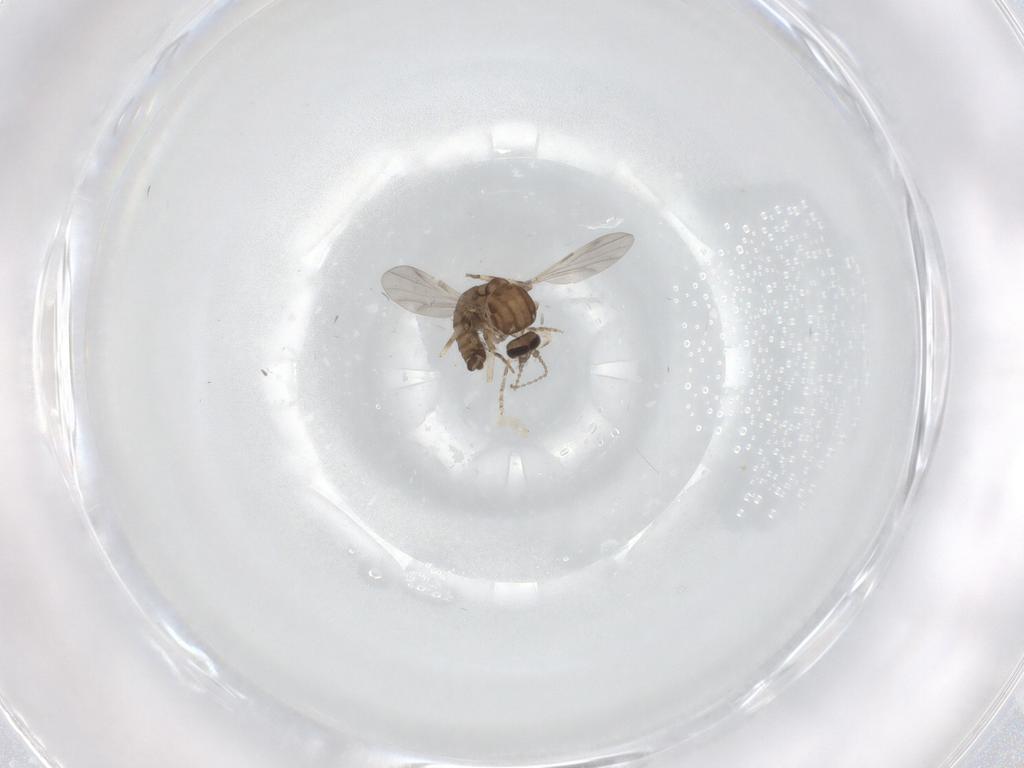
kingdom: Animalia
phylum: Arthropoda
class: Insecta
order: Diptera
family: Ceratopogonidae
